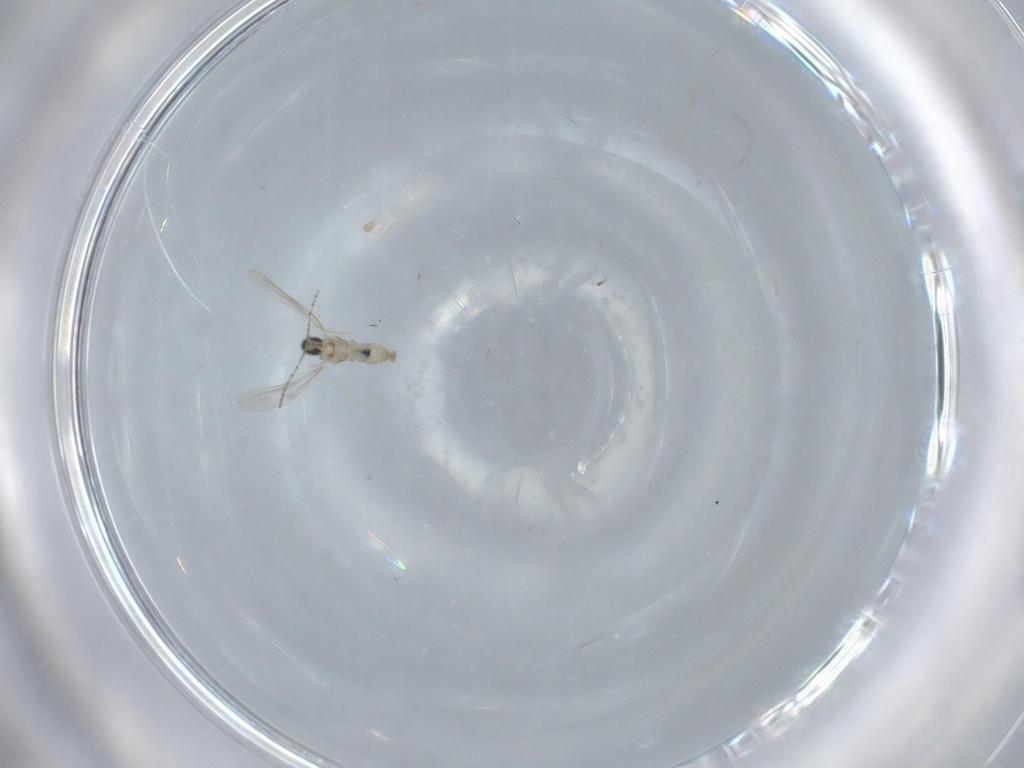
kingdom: Animalia
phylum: Arthropoda
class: Insecta
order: Diptera
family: Cecidomyiidae
